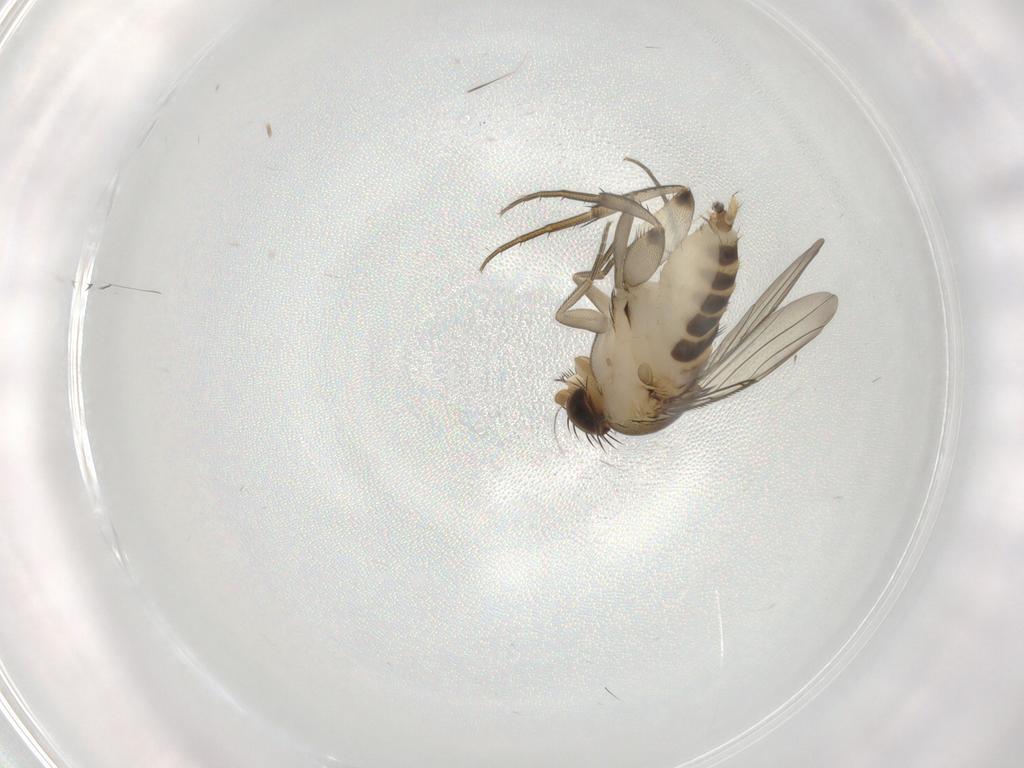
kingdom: Animalia
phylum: Arthropoda
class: Insecta
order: Diptera
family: Phoridae
